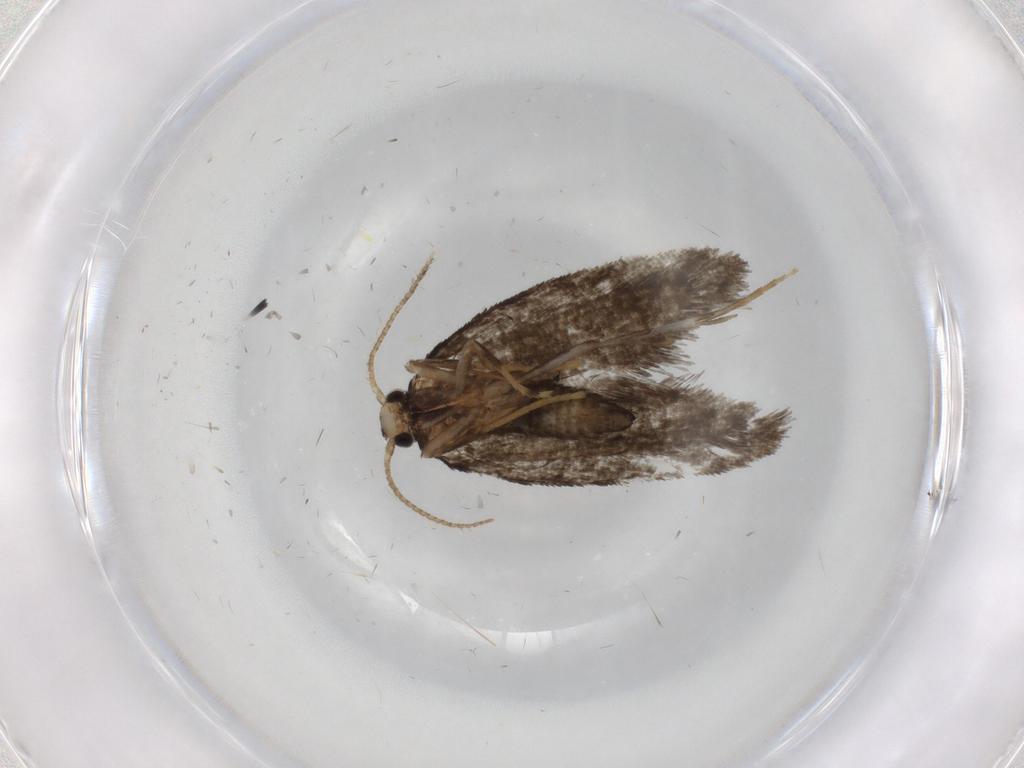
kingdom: Animalia
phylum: Arthropoda
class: Insecta
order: Lepidoptera
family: Psychidae
